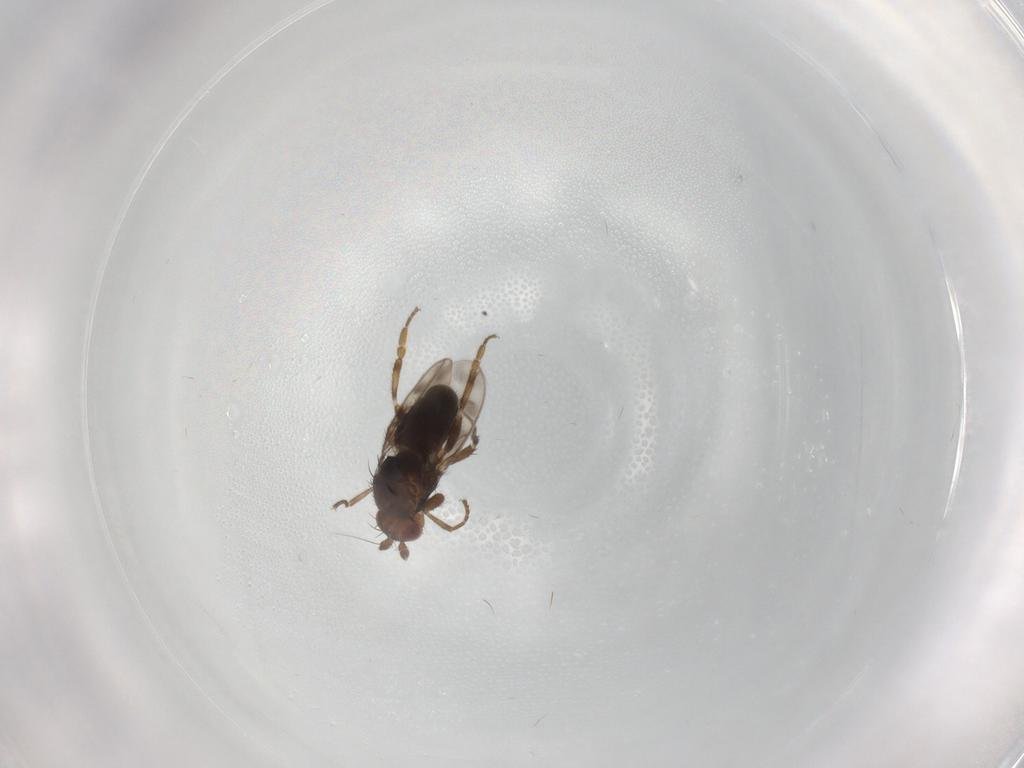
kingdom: Animalia
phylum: Arthropoda
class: Insecta
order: Diptera
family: Sphaeroceridae
